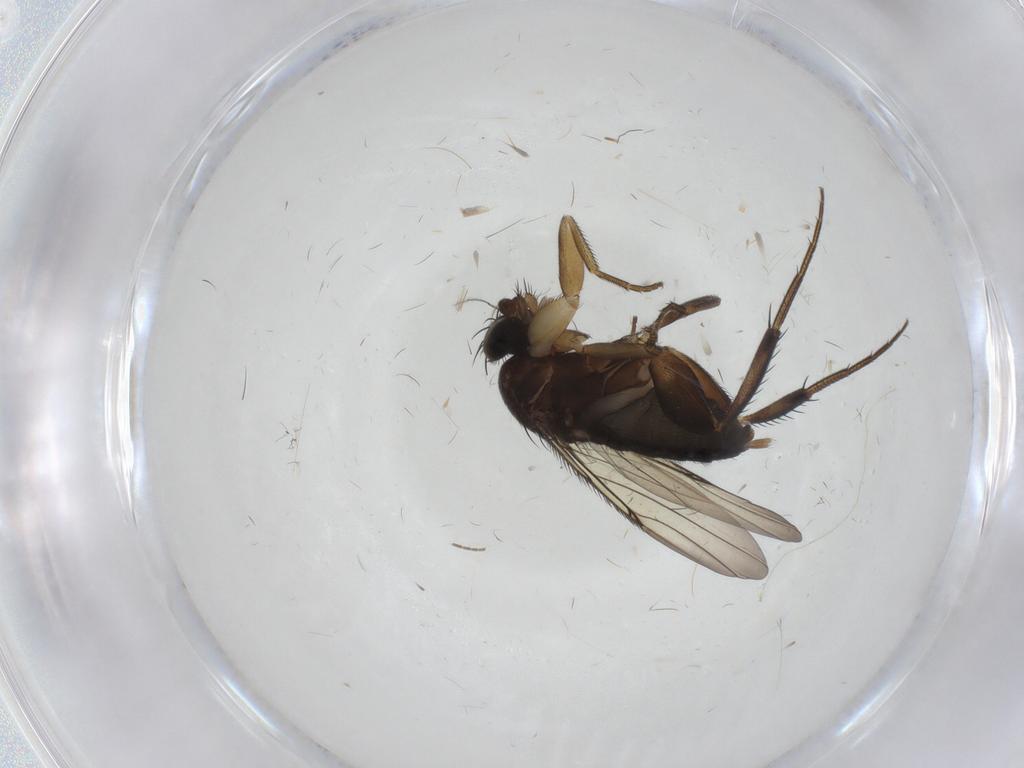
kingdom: Animalia
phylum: Arthropoda
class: Insecta
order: Diptera
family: Phoridae
